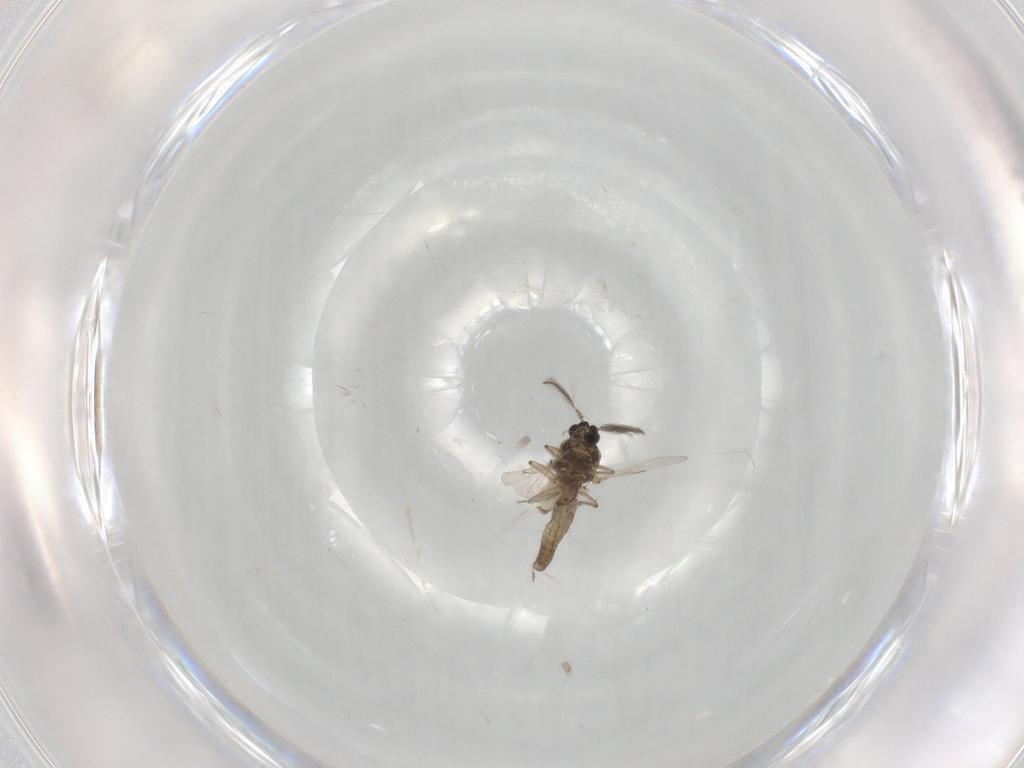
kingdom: Animalia
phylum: Arthropoda
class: Insecta
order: Diptera
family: Ceratopogonidae
